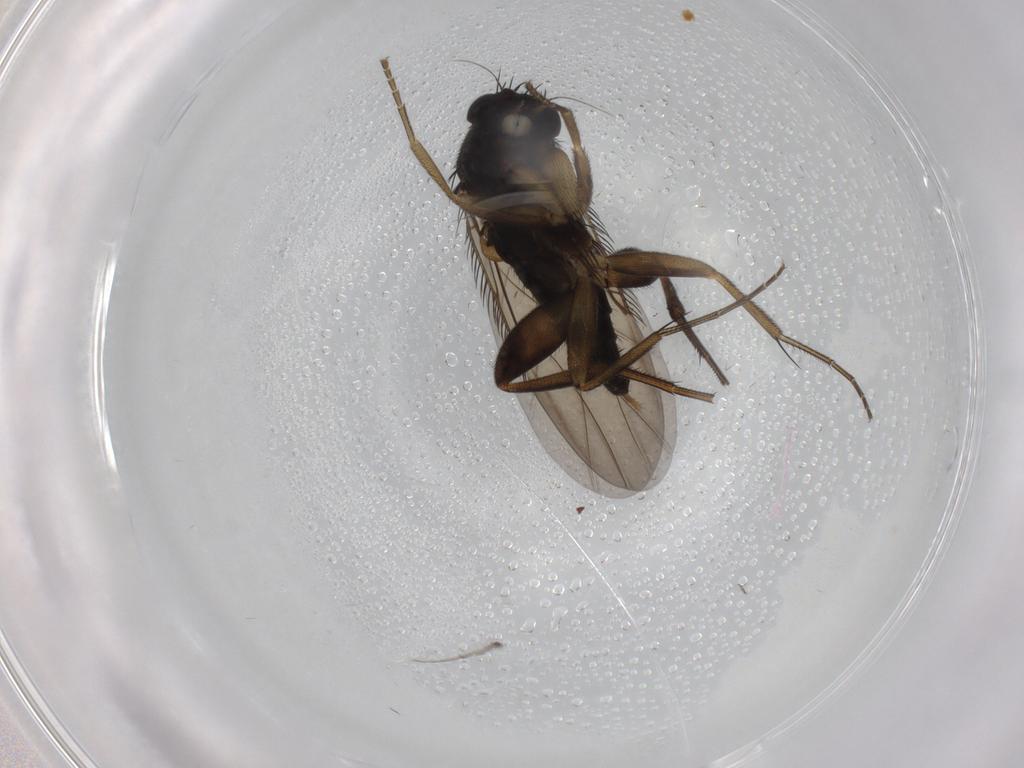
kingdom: Animalia
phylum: Arthropoda
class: Insecta
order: Diptera
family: Phoridae
